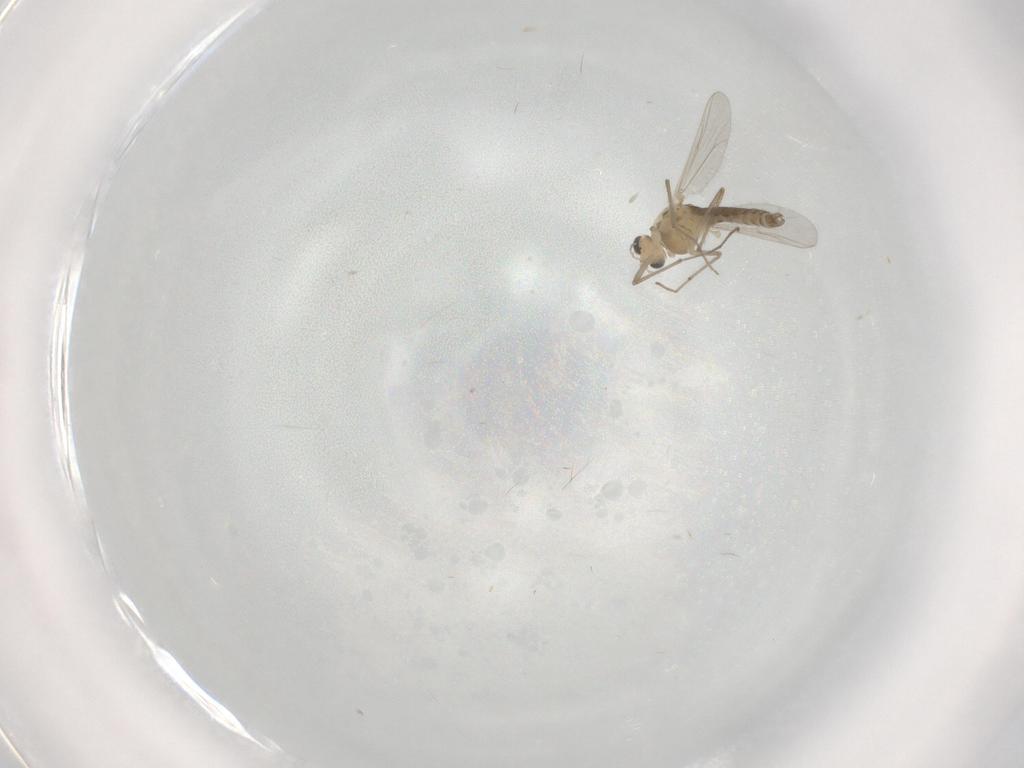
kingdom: Animalia
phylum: Arthropoda
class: Insecta
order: Diptera
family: Chironomidae
